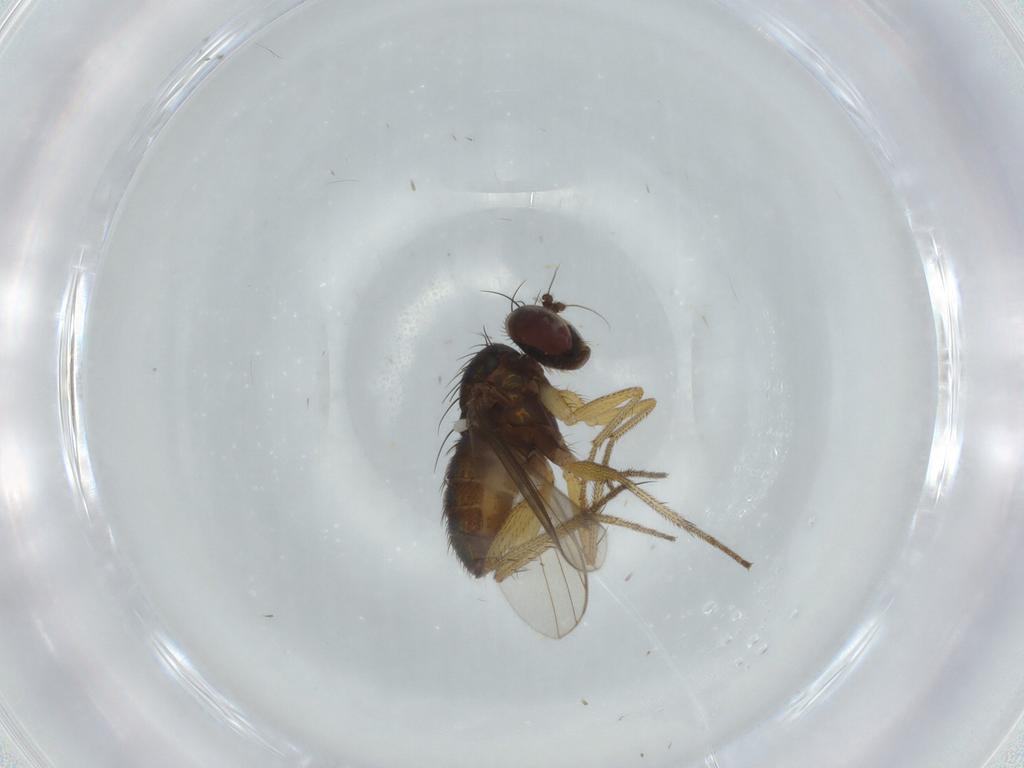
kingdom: Animalia
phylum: Arthropoda
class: Insecta
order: Diptera
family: Dolichopodidae
